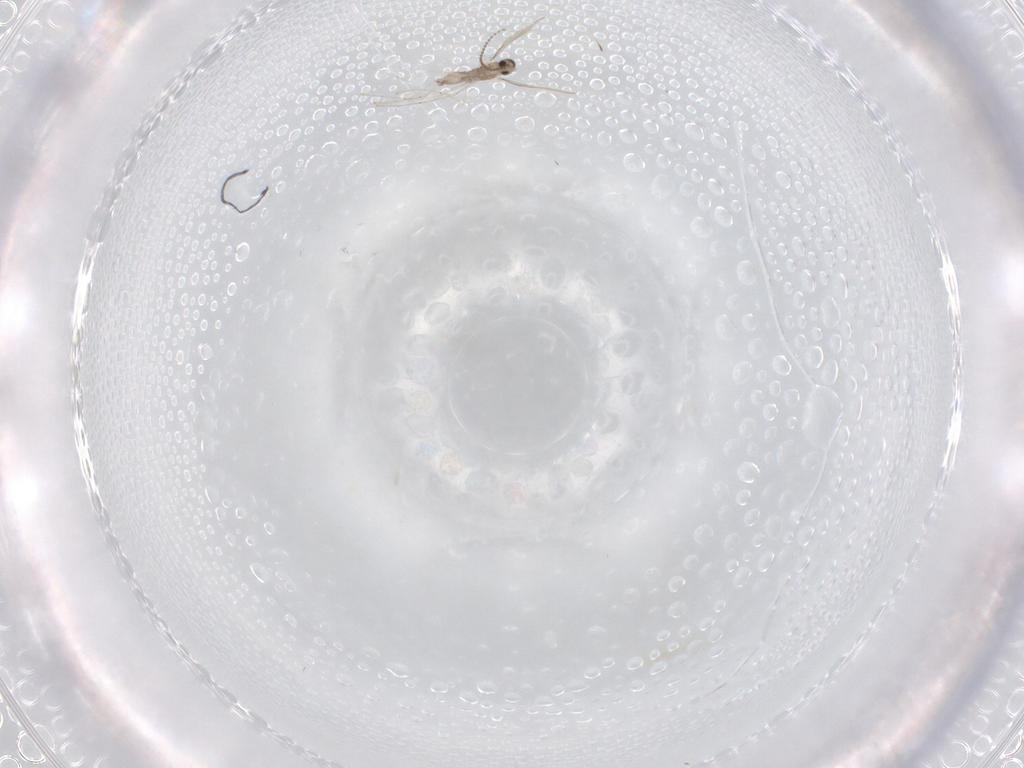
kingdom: Animalia
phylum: Arthropoda
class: Insecta
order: Diptera
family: Cecidomyiidae
